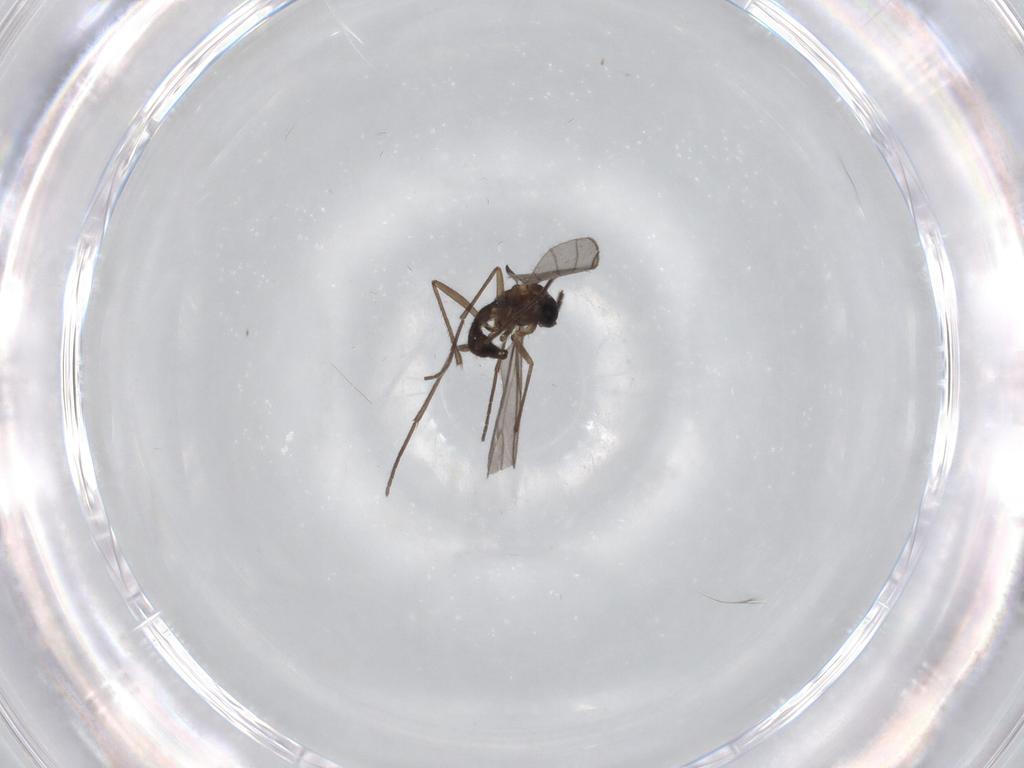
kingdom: Animalia
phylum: Arthropoda
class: Insecta
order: Diptera
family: Sciaridae
